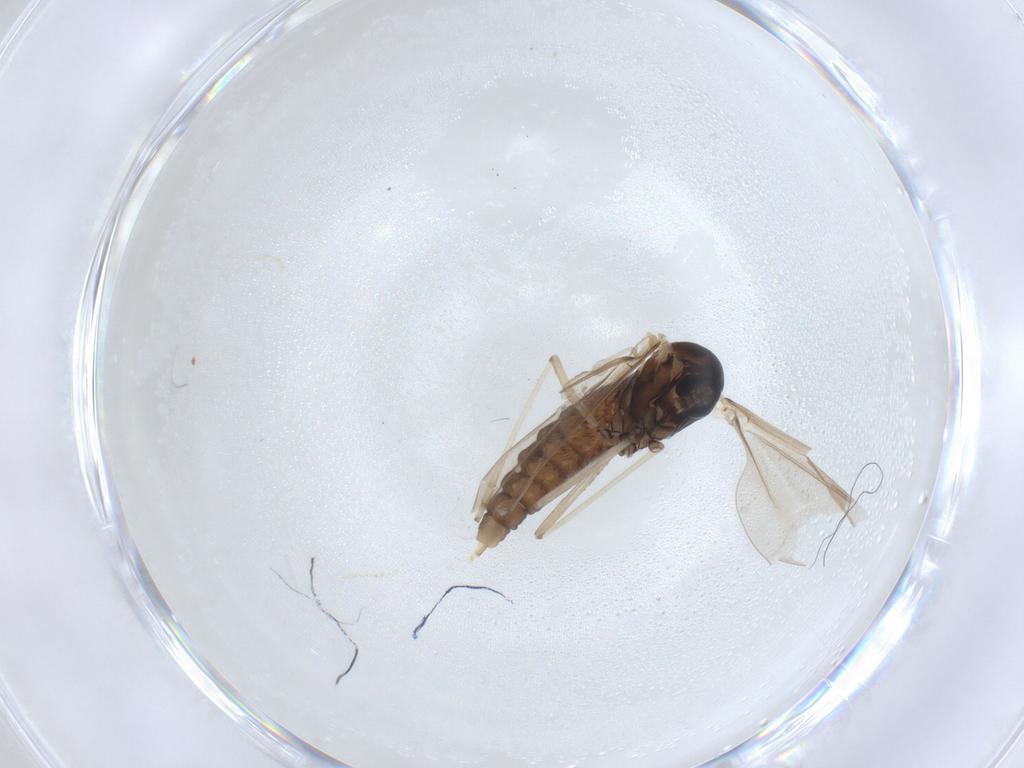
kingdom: Animalia
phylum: Arthropoda
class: Insecta
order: Diptera
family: Cecidomyiidae
